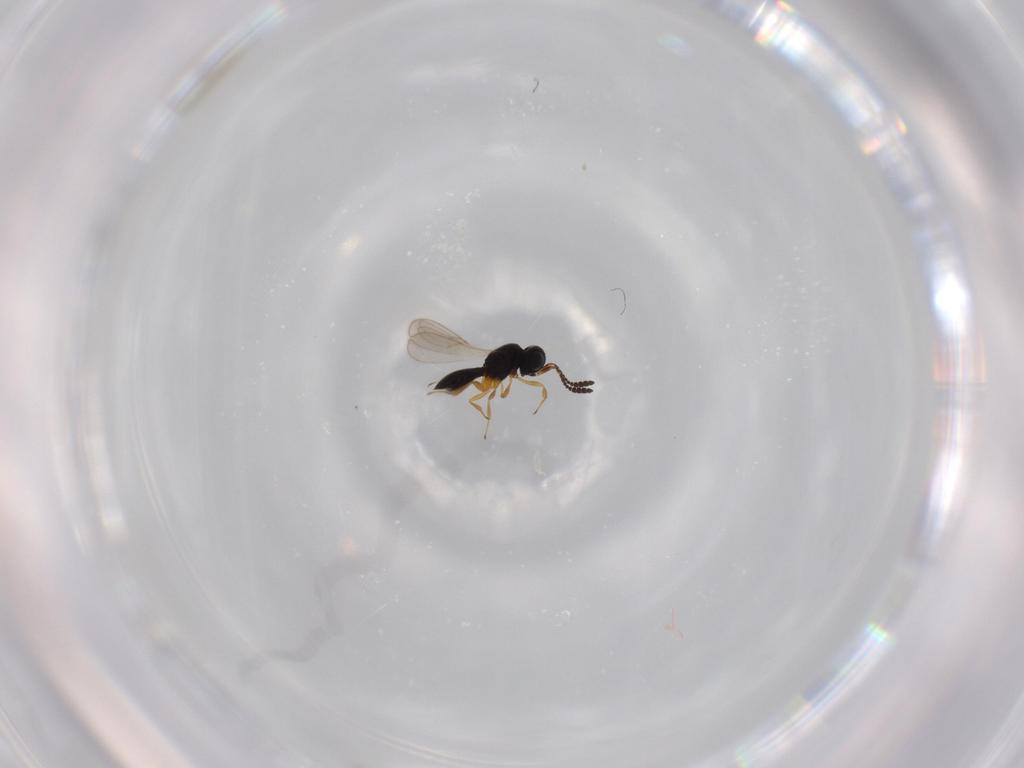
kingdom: Animalia
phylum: Arthropoda
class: Insecta
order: Hymenoptera
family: Scelionidae
